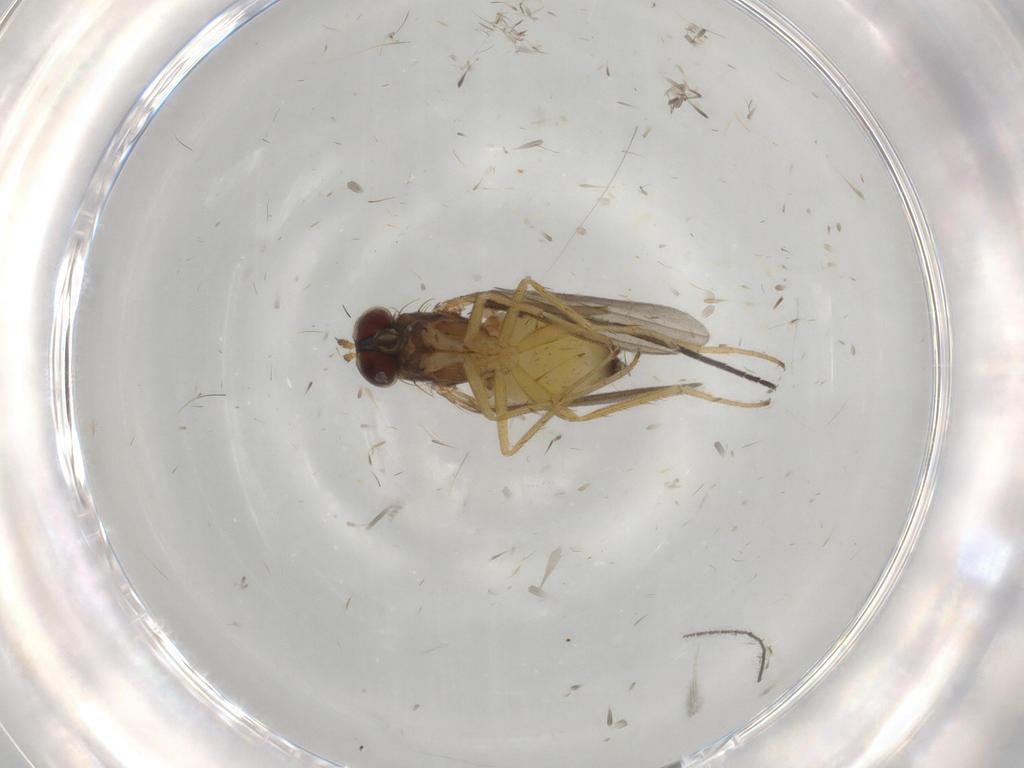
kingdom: Animalia
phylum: Arthropoda
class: Insecta
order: Diptera
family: Dolichopodidae
